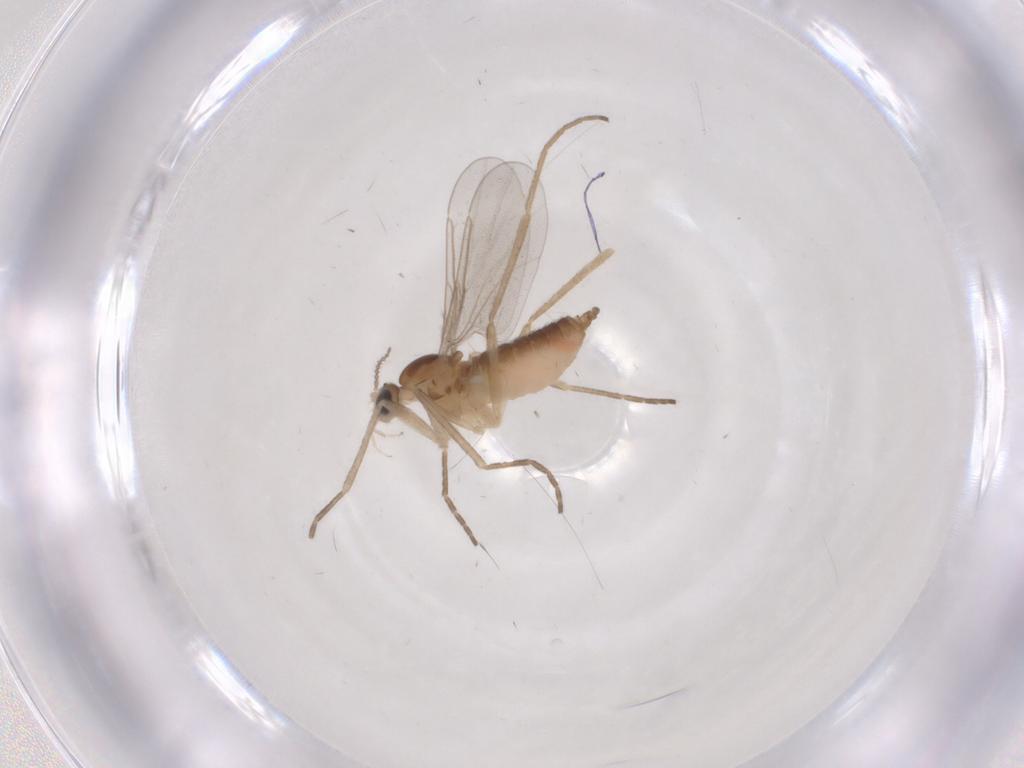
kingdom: Animalia
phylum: Arthropoda
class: Insecta
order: Diptera
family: Cecidomyiidae
